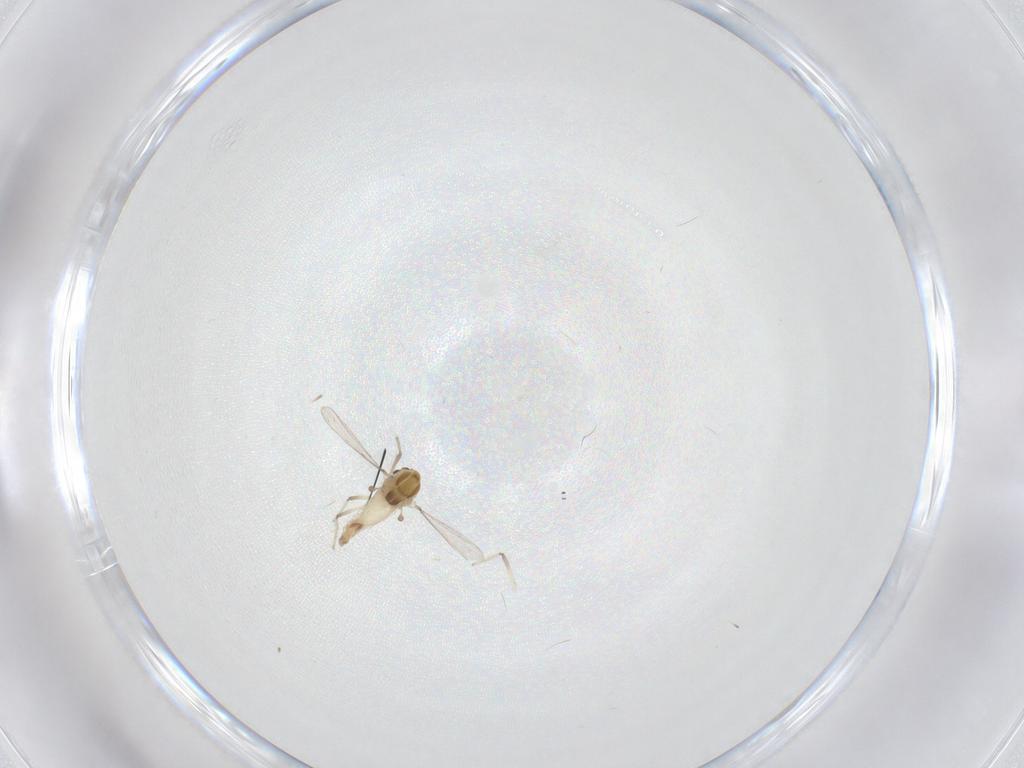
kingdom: Animalia
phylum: Arthropoda
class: Insecta
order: Diptera
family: Chironomidae
